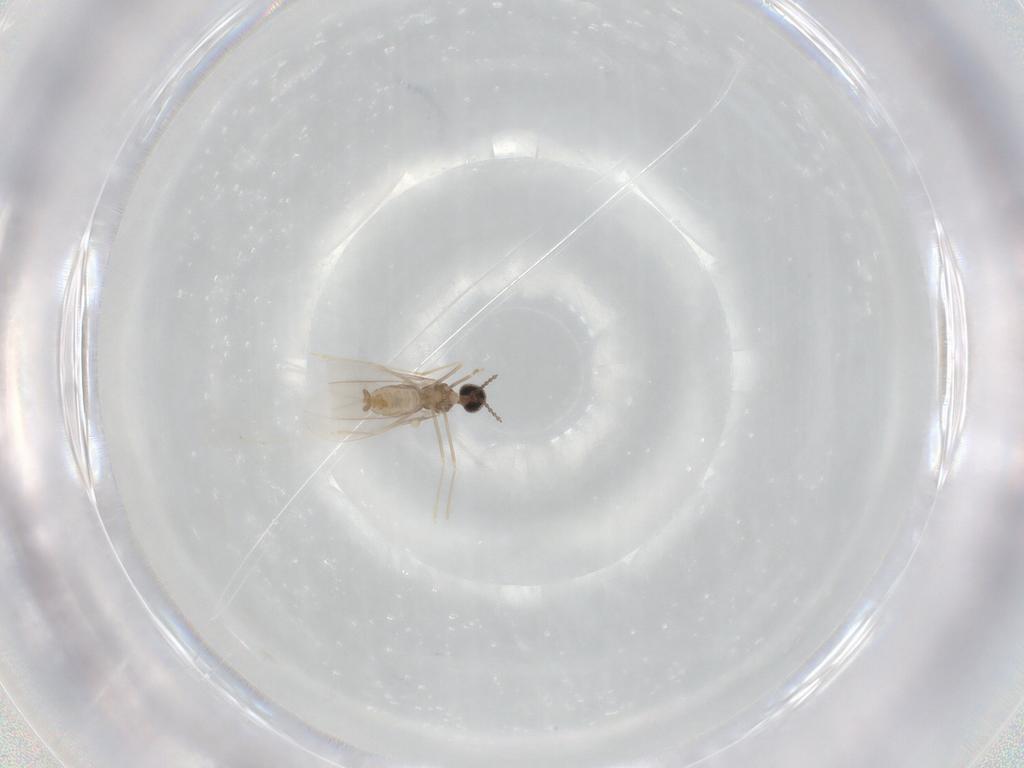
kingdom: Animalia
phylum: Arthropoda
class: Insecta
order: Diptera
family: Cecidomyiidae
